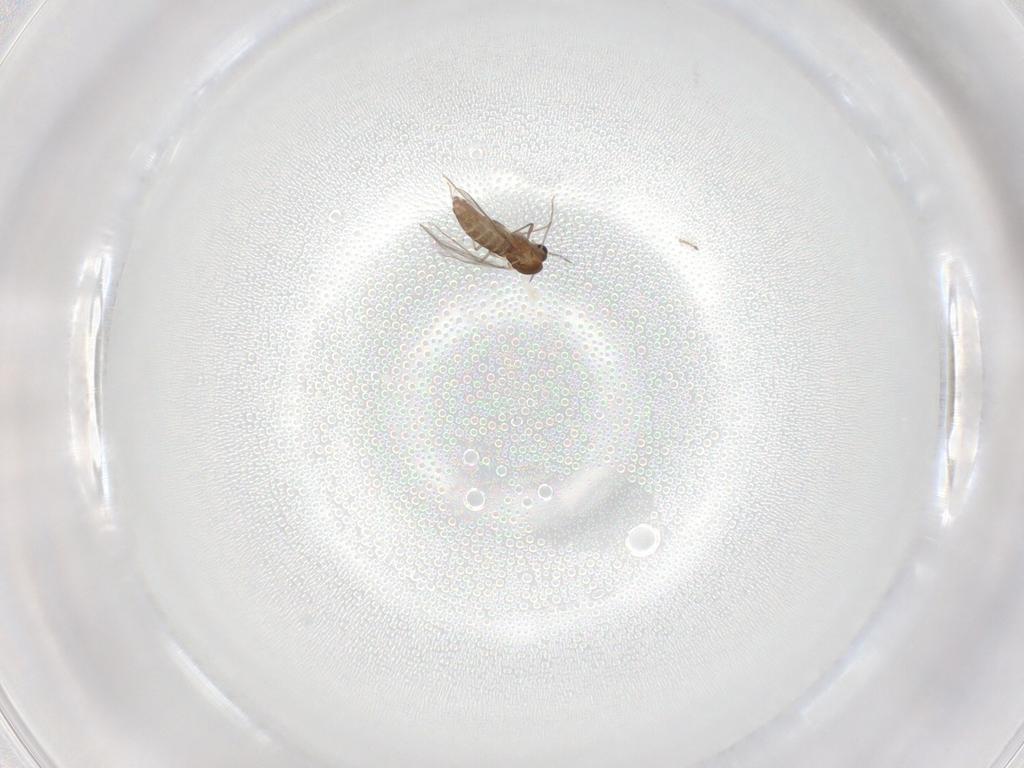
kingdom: Animalia
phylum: Arthropoda
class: Insecta
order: Diptera
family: Chironomidae
